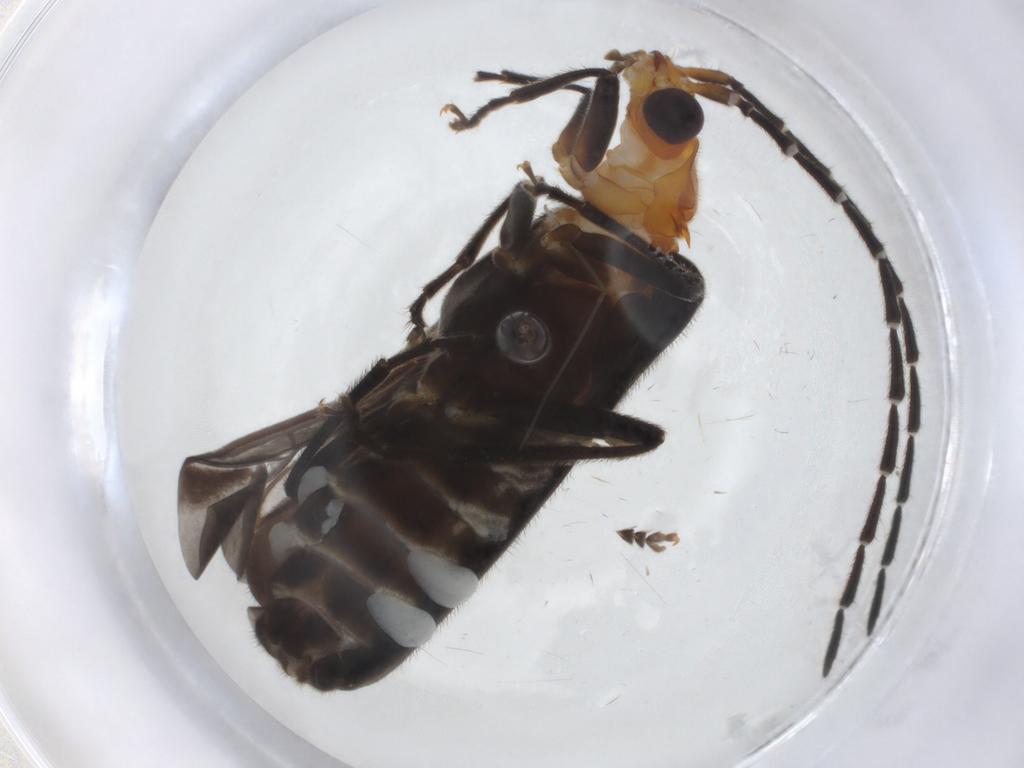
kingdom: Animalia
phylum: Arthropoda
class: Insecta
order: Coleoptera
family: Cantharidae
